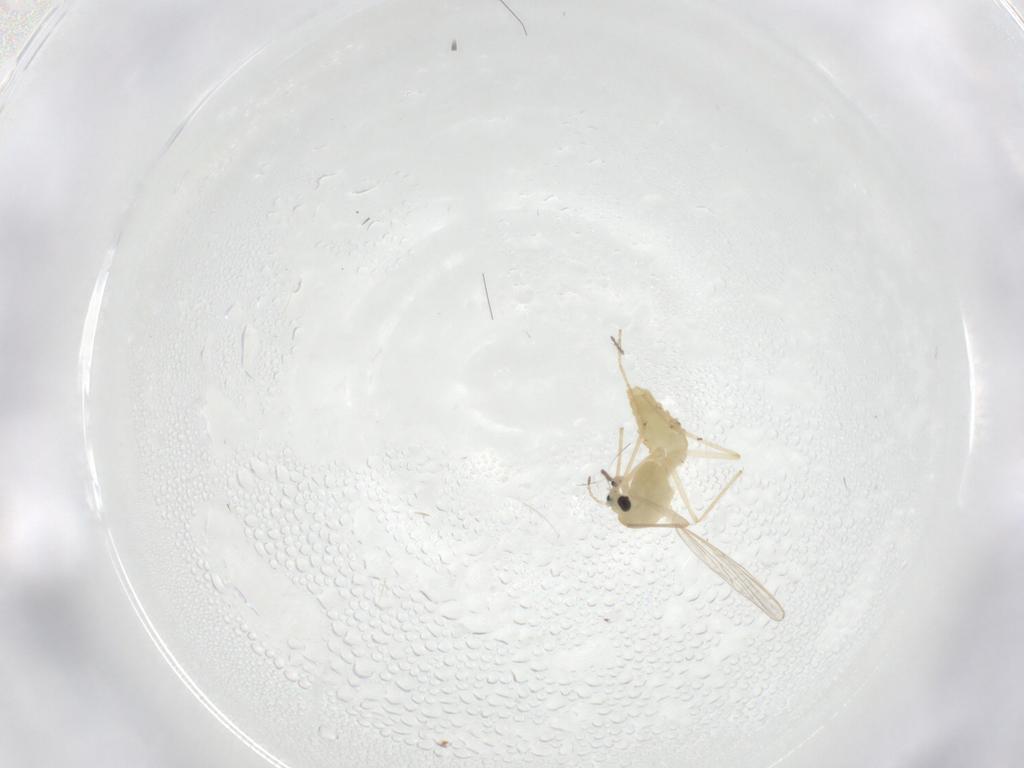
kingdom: Animalia
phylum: Arthropoda
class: Insecta
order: Diptera
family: Chironomidae
